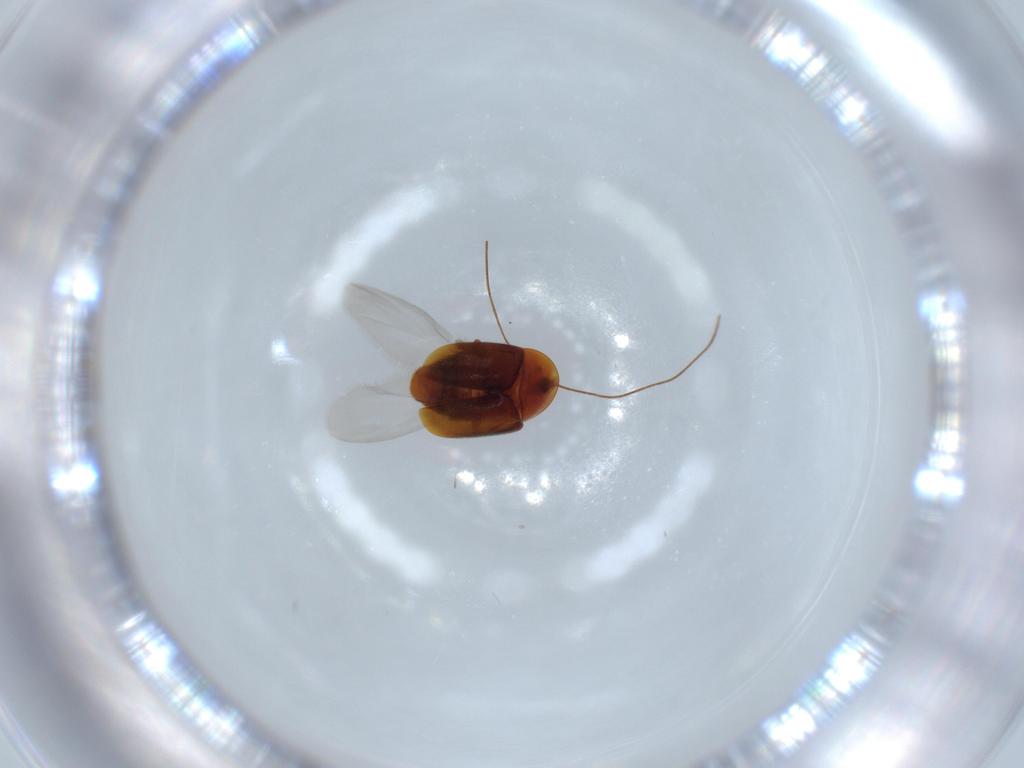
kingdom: Animalia
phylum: Arthropoda
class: Insecta
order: Coleoptera
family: Corylophidae
